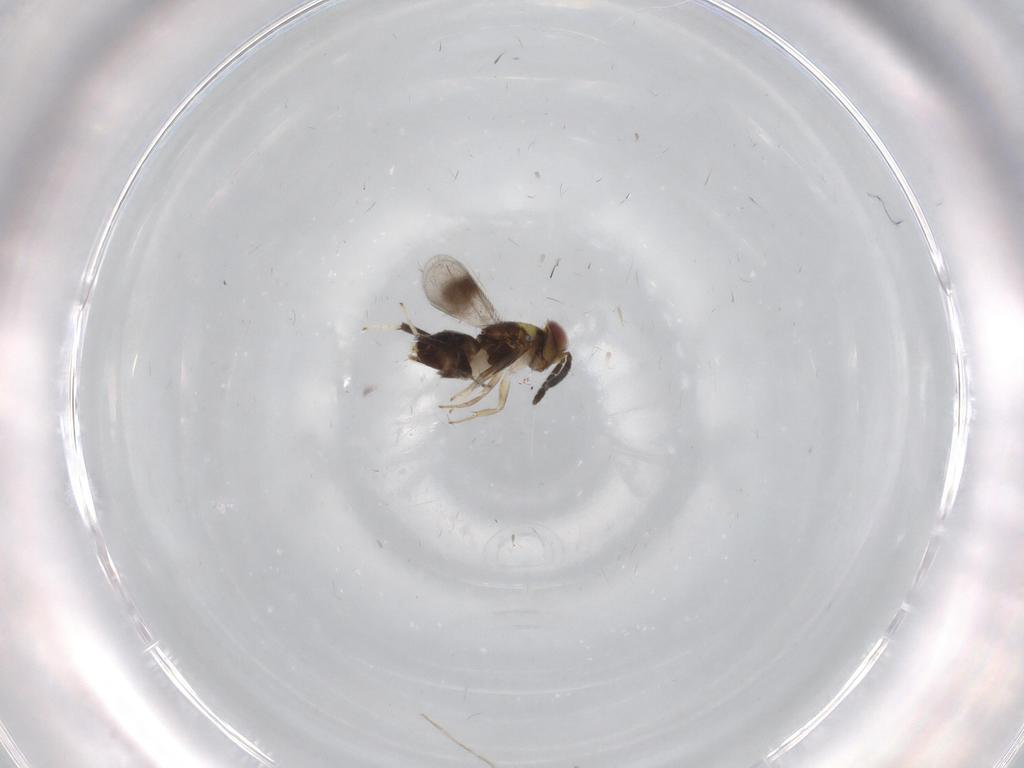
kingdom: Animalia
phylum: Arthropoda
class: Insecta
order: Hymenoptera
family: Aphelinidae
